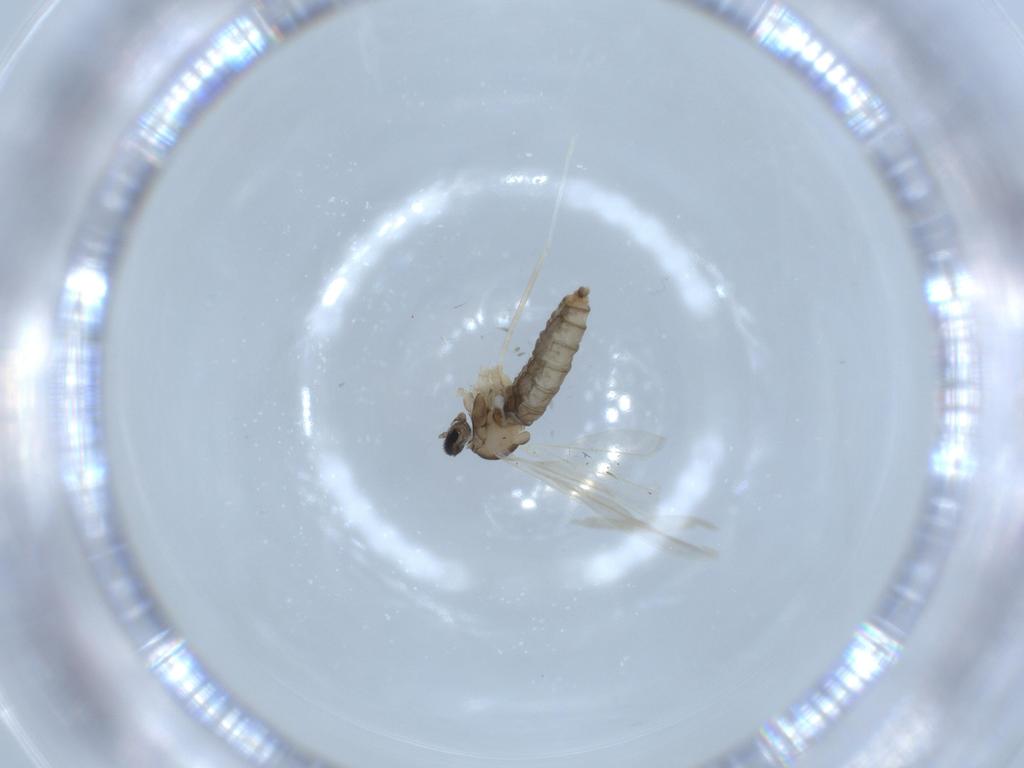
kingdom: Animalia
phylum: Arthropoda
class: Insecta
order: Diptera
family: Cecidomyiidae
